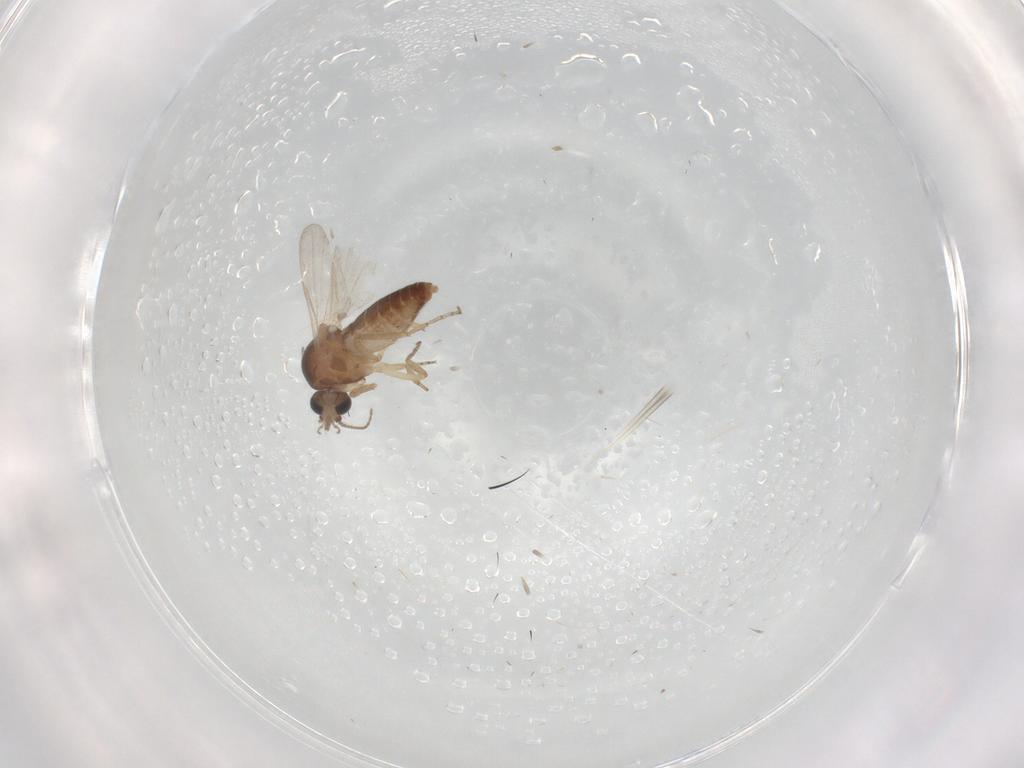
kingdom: Animalia
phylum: Arthropoda
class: Insecta
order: Diptera
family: Ceratopogonidae
